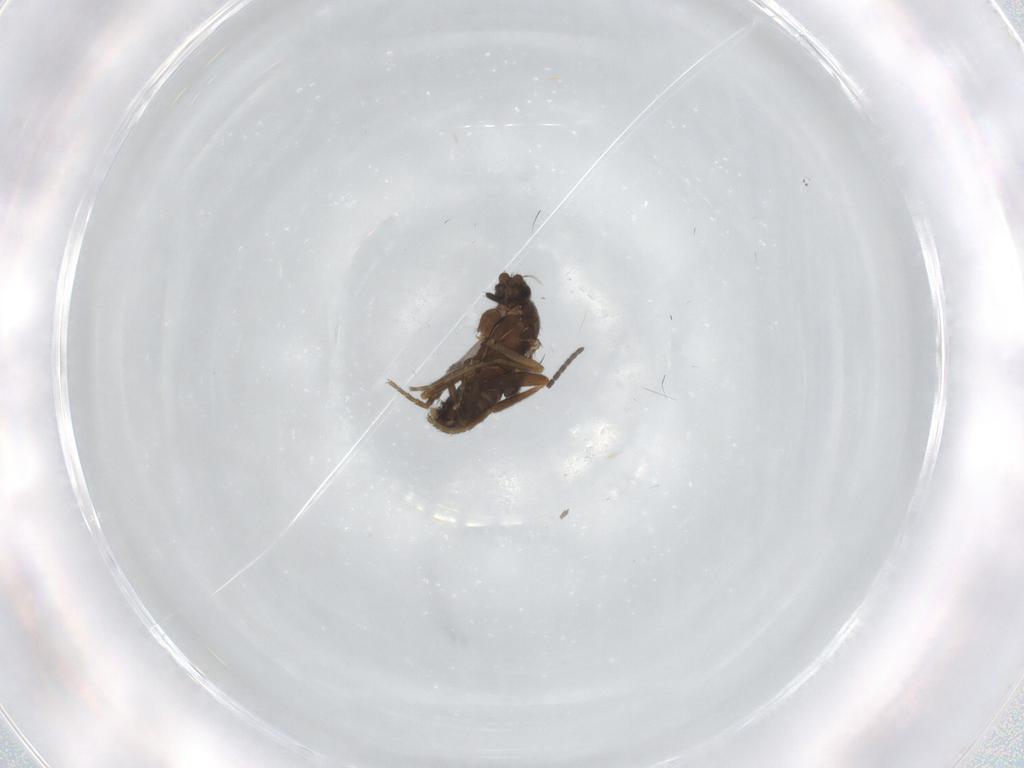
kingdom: Animalia
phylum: Arthropoda
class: Insecta
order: Diptera
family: Phoridae
